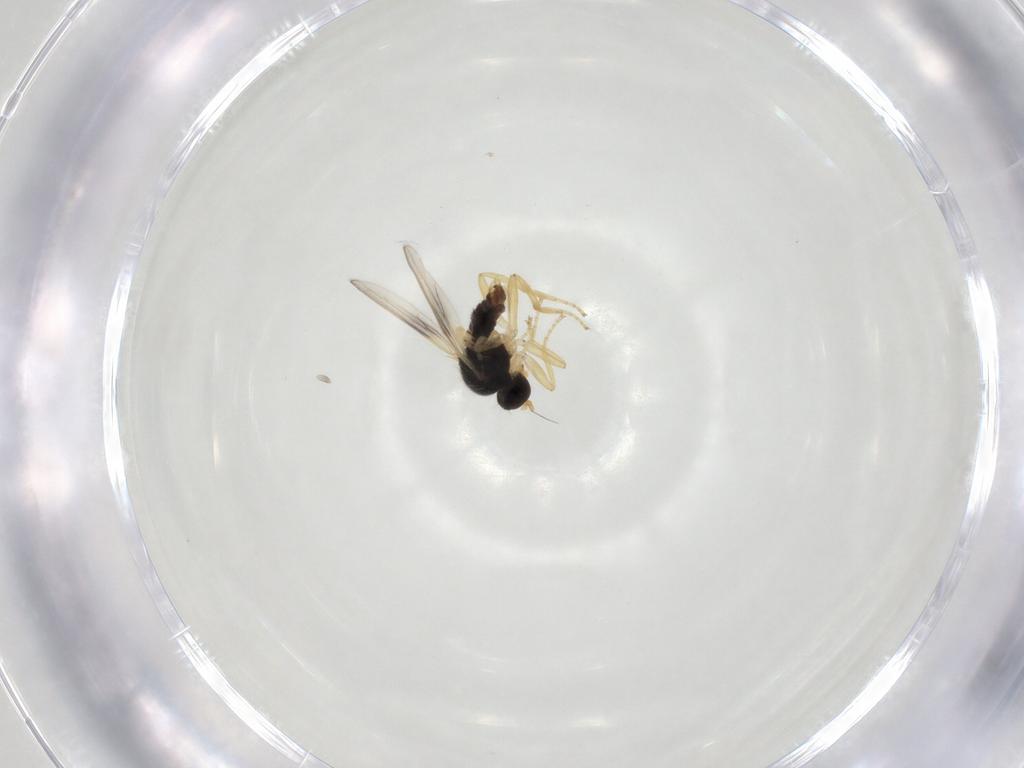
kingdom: Animalia
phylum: Arthropoda
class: Insecta
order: Diptera
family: Hybotidae
